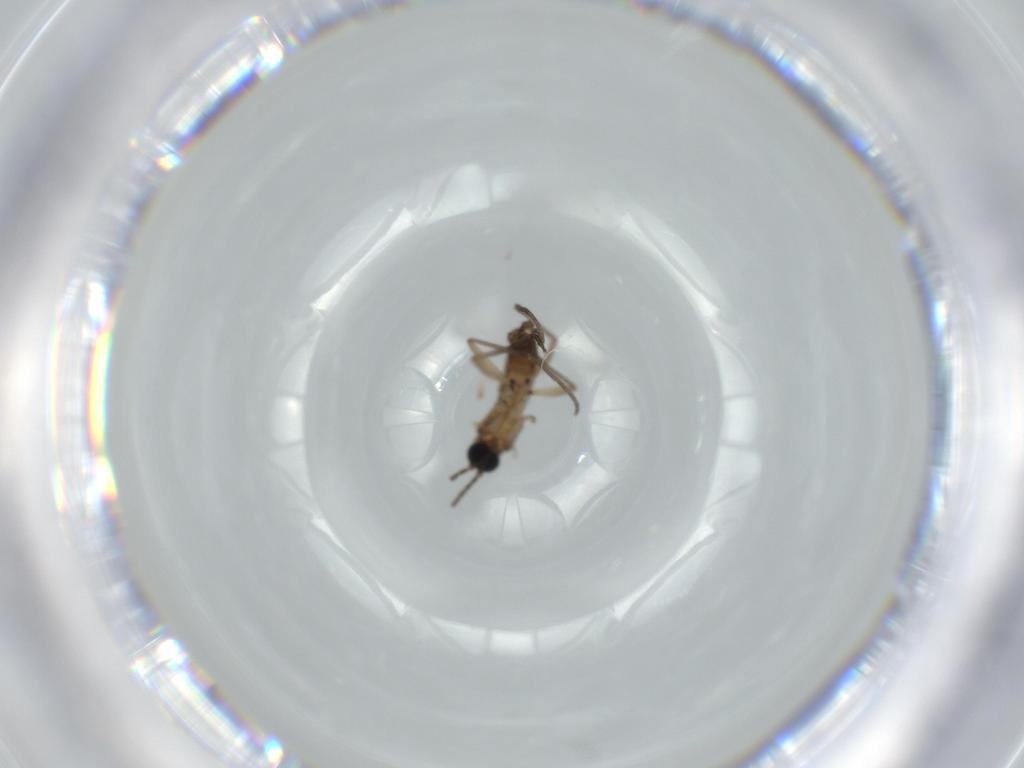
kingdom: Animalia
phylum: Arthropoda
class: Insecta
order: Diptera
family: Sciaridae
